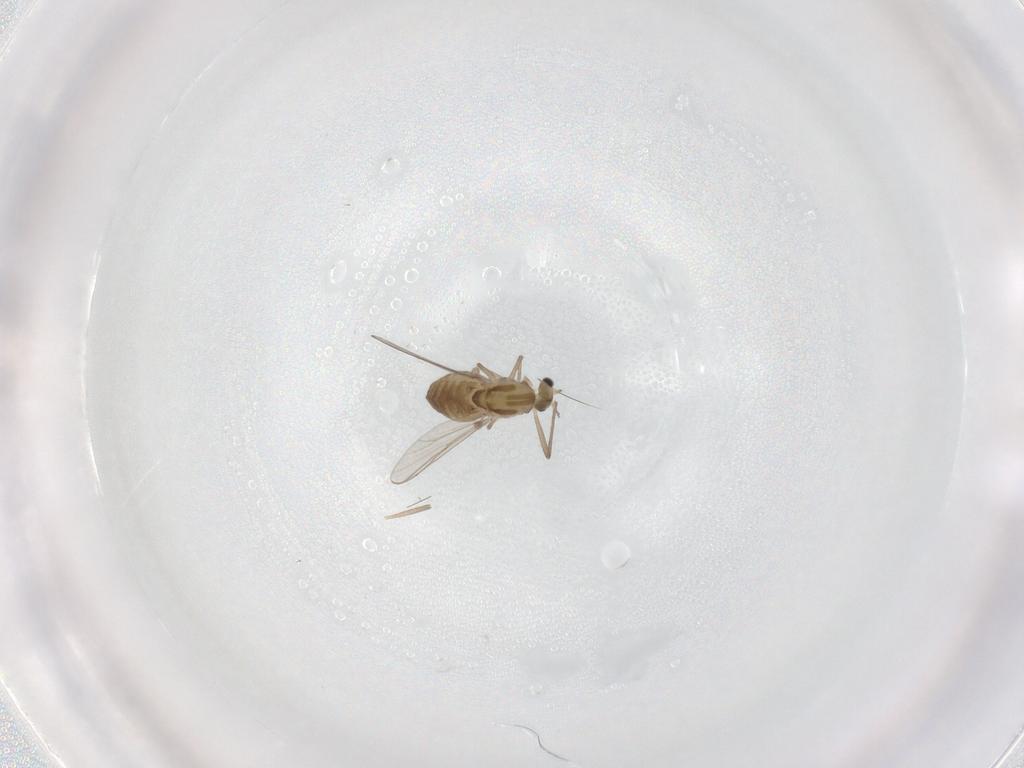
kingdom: Animalia
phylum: Arthropoda
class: Insecta
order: Diptera
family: Chironomidae
